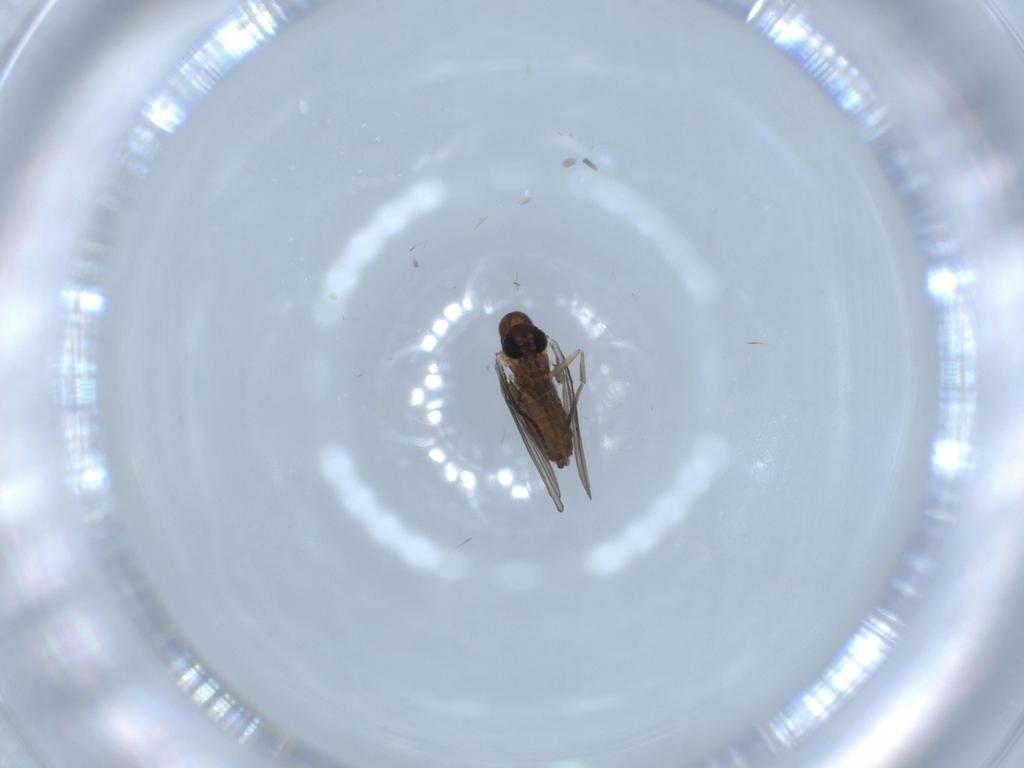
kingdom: Animalia
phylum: Arthropoda
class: Insecta
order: Diptera
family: Sciaridae
